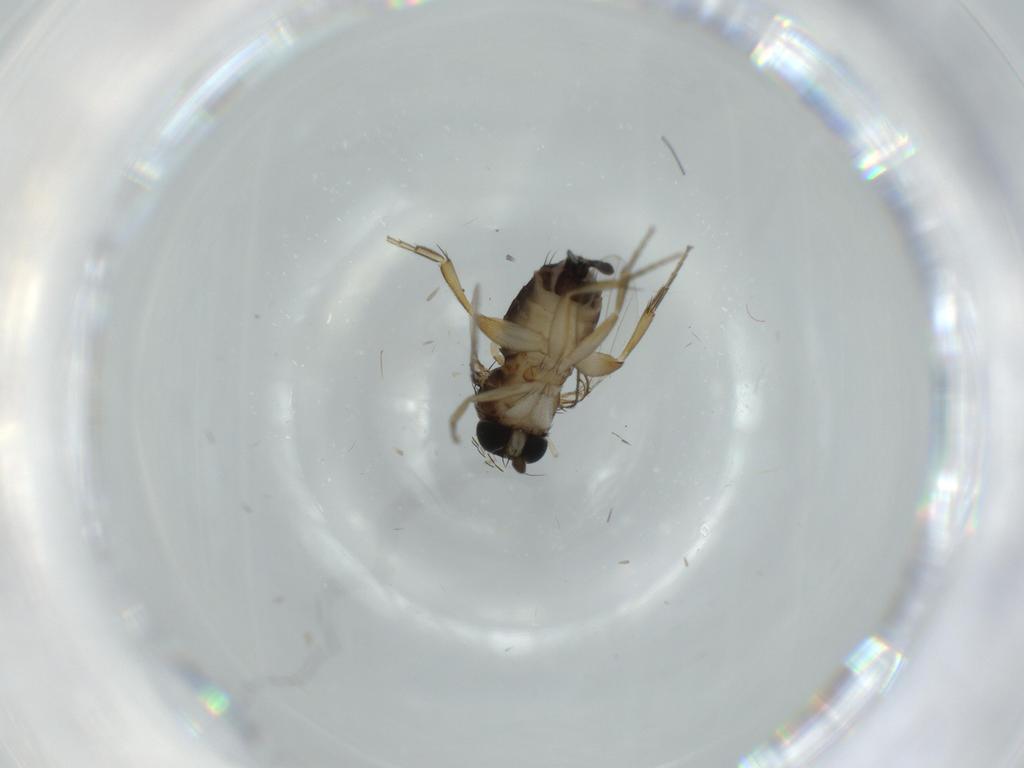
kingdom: Animalia
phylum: Arthropoda
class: Insecta
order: Diptera
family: Phoridae
